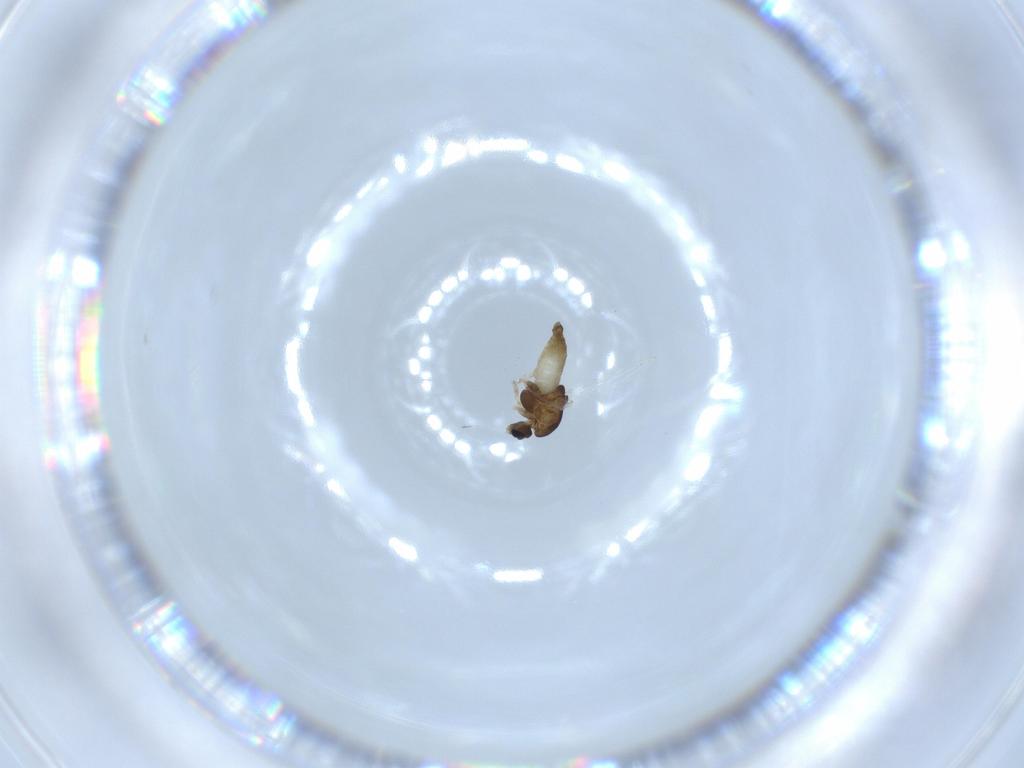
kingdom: Animalia
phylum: Arthropoda
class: Insecta
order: Diptera
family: Chironomidae
